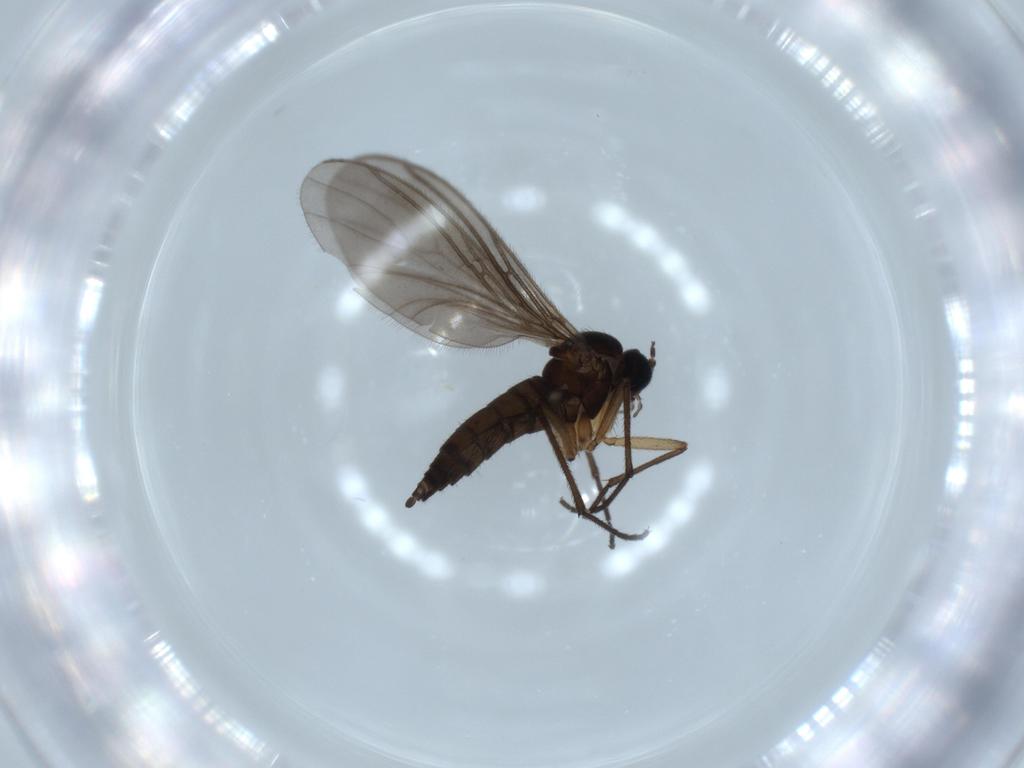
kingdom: Animalia
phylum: Arthropoda
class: Insecta
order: Diptera
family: Sciaridae
